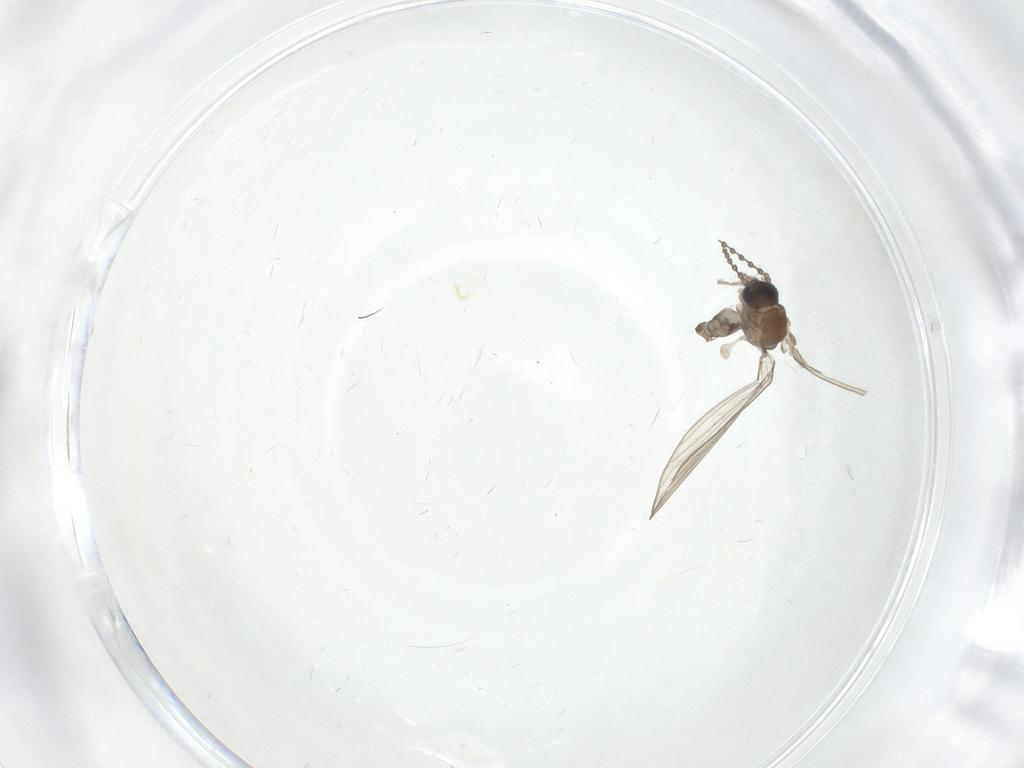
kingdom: Animalia
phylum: Arthropoda
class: Insecta
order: Diptera
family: Psychodidae
